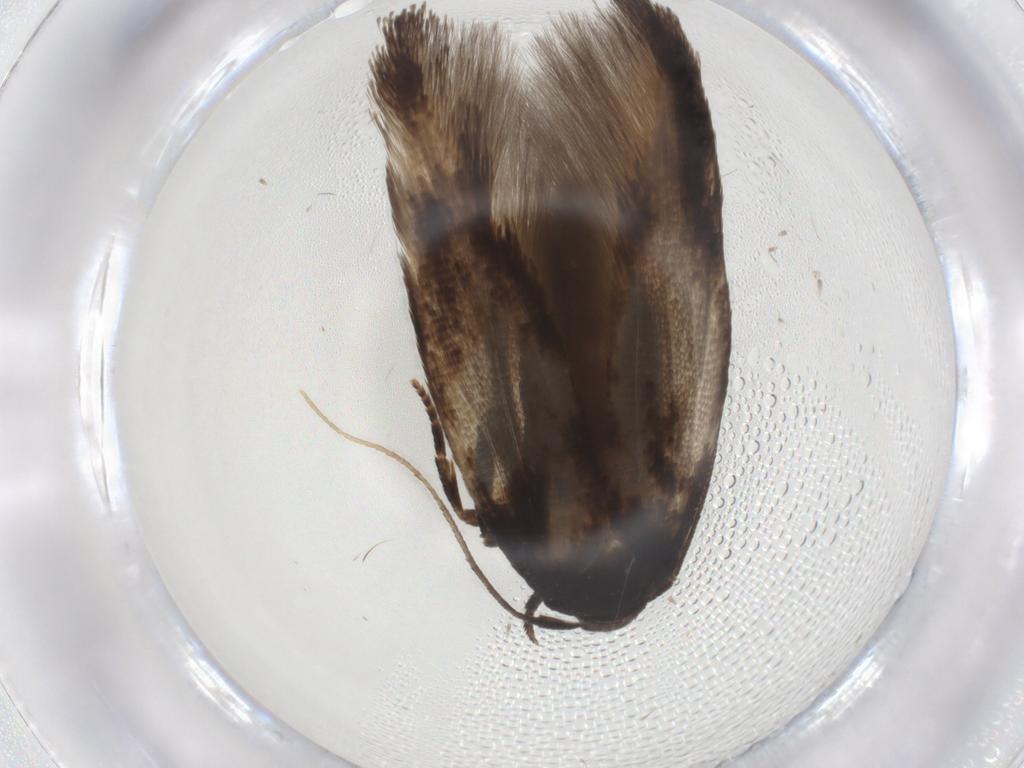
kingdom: Animalia
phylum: Arthropoda
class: Insecta
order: Lepidoptera
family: Cosmopterigidae
